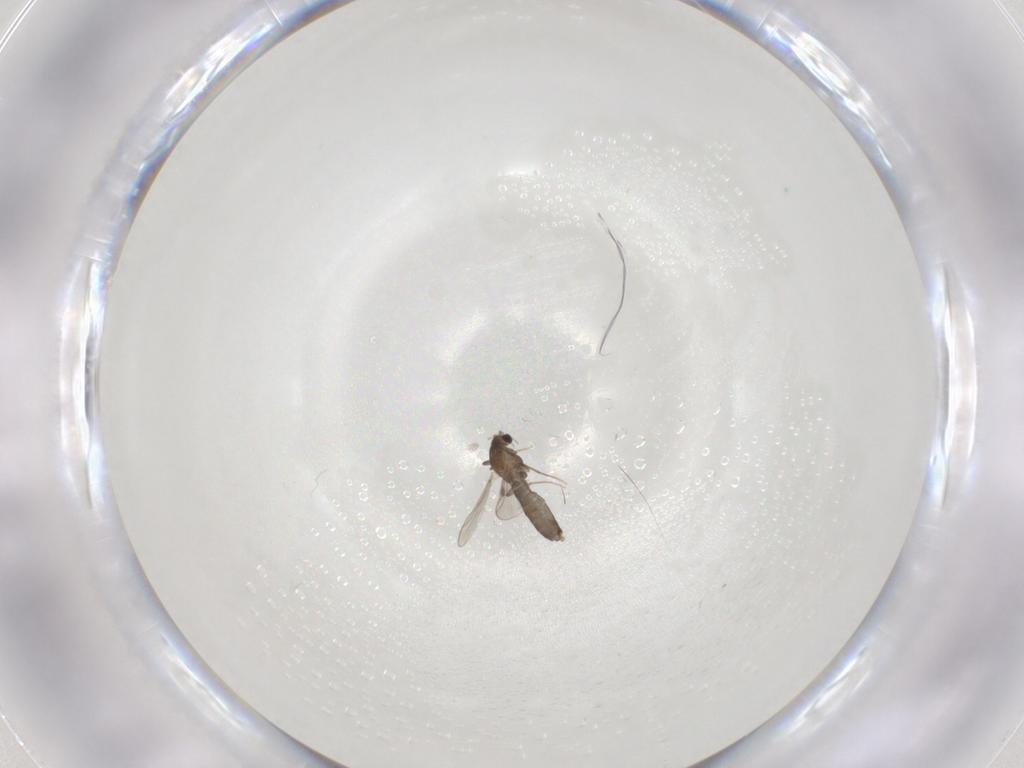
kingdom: Animalia
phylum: Arthropoda
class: Insecta
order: Diptera
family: Chironomidae
